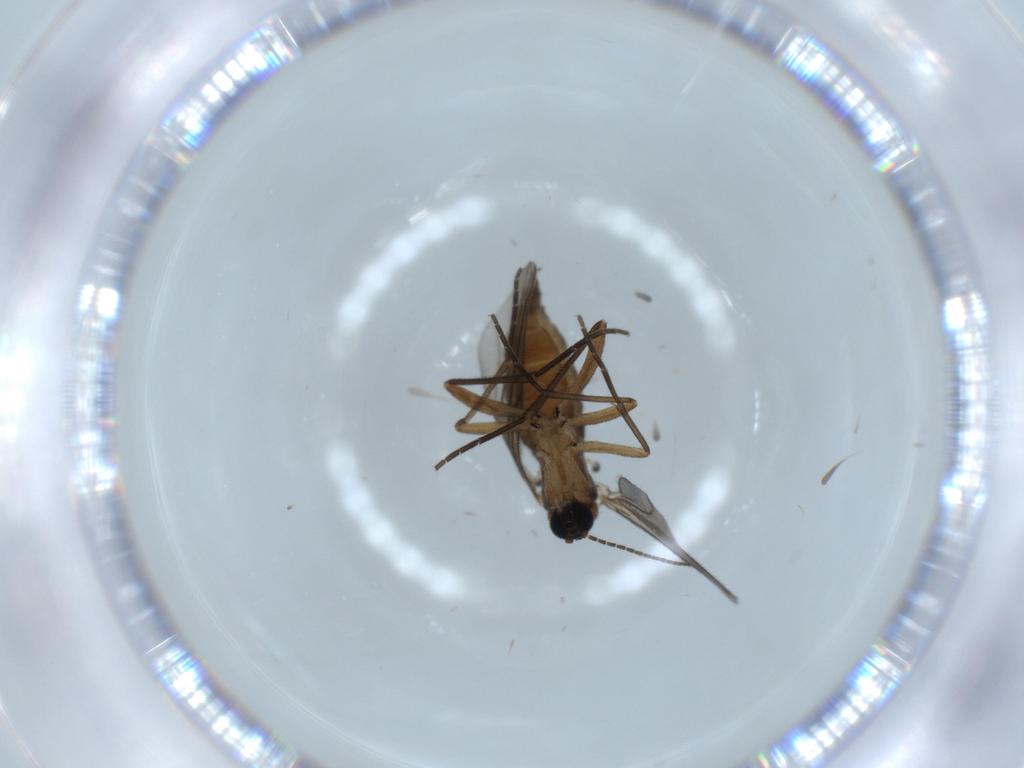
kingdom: Animalia
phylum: Arthropoda
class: Insecta
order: Diptera
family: Sciaridae
